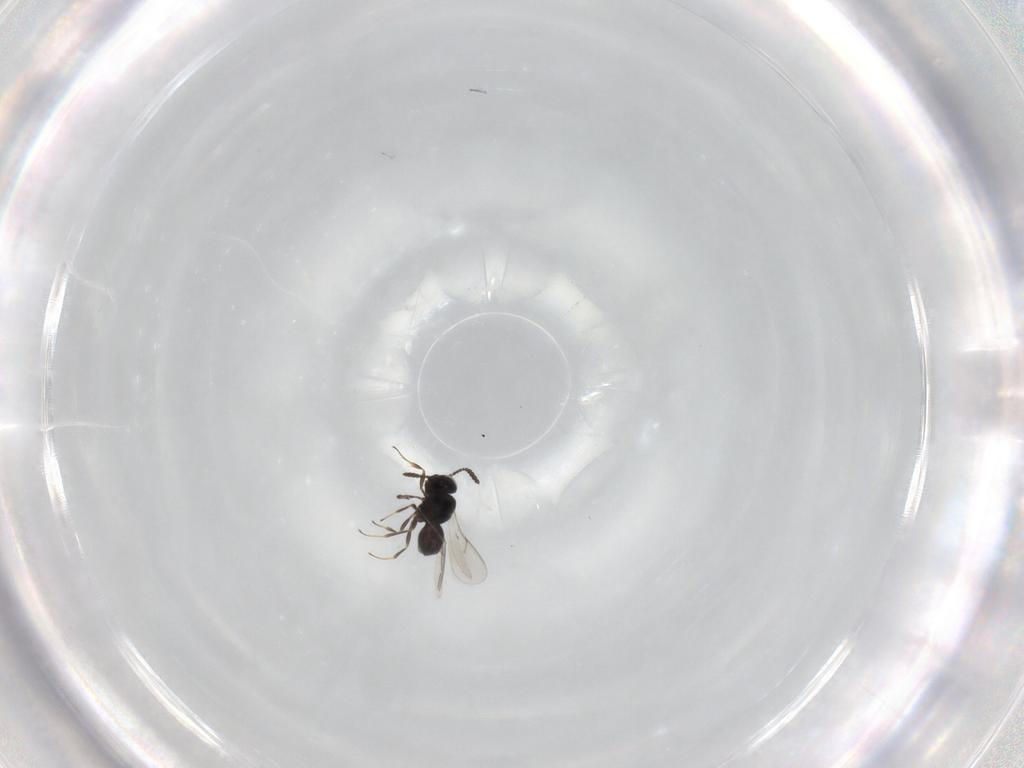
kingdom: Animalia
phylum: Arthropoda
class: Insecta
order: Hymenoptera
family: Scelionidae
